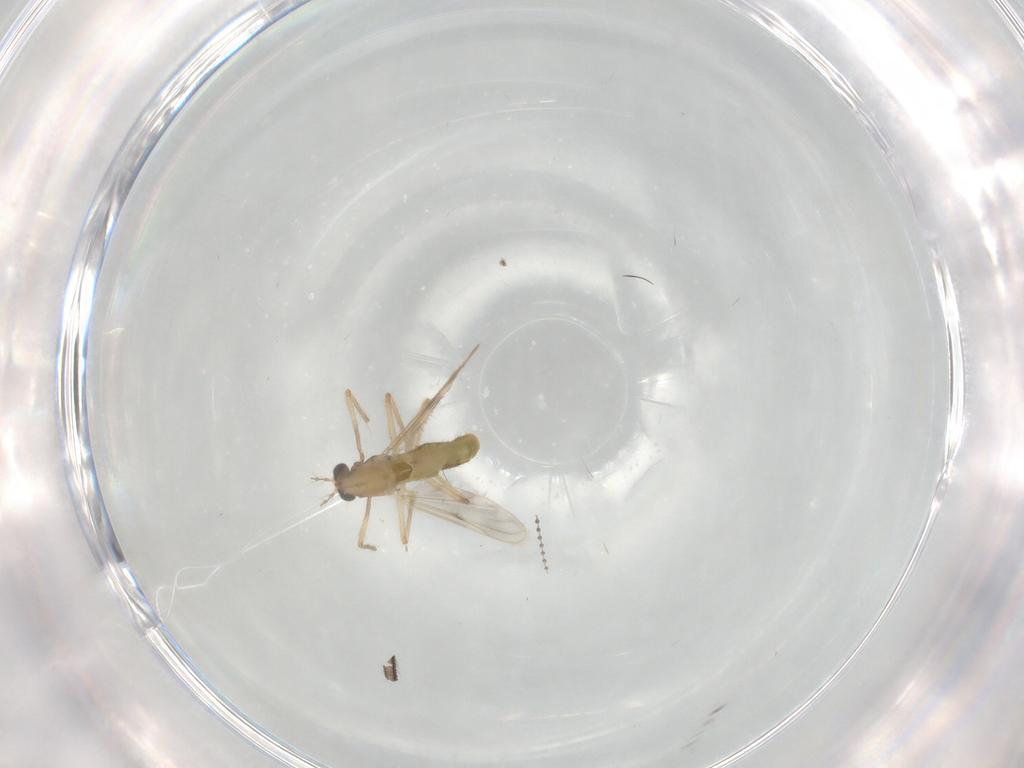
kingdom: Animalia
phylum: Arthropoda
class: Insecta
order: Diptera
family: Chironomidae
